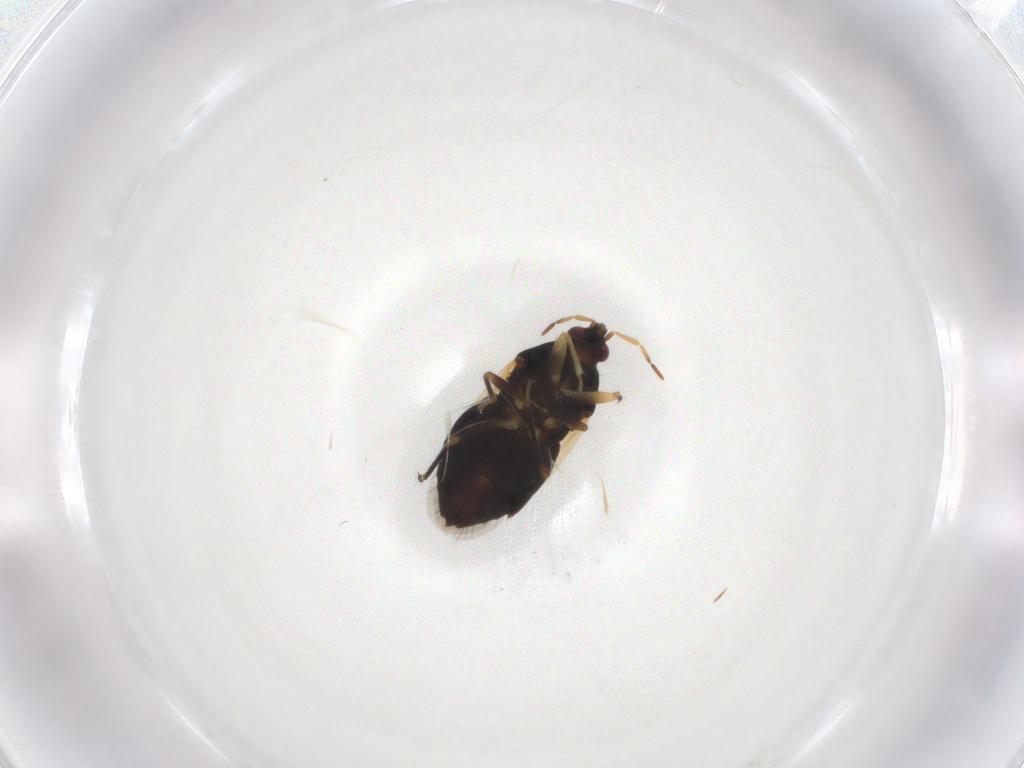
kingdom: Animalia
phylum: Arthropoda
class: Insecta
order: Hemiptera
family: Anthocoridae
